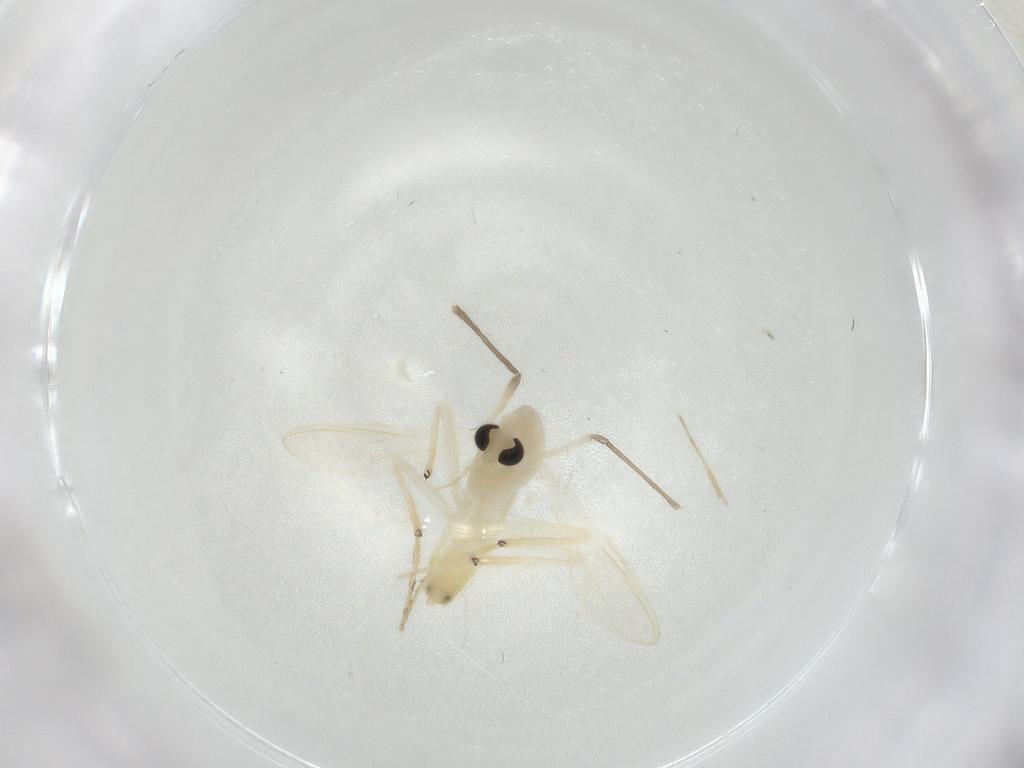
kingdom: Animalia
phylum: Arthropoda
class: Insecta
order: Diptera
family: Chironomidae
